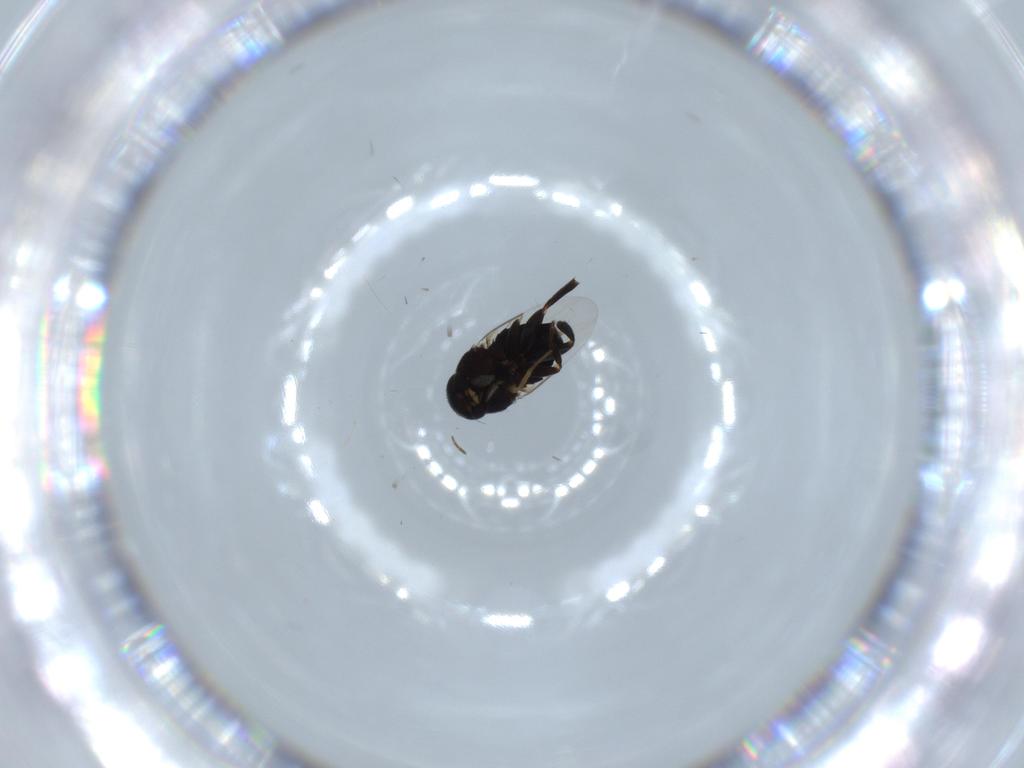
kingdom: Animalia
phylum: Arthropoda
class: Insecta
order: Diptera
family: Phoridae
